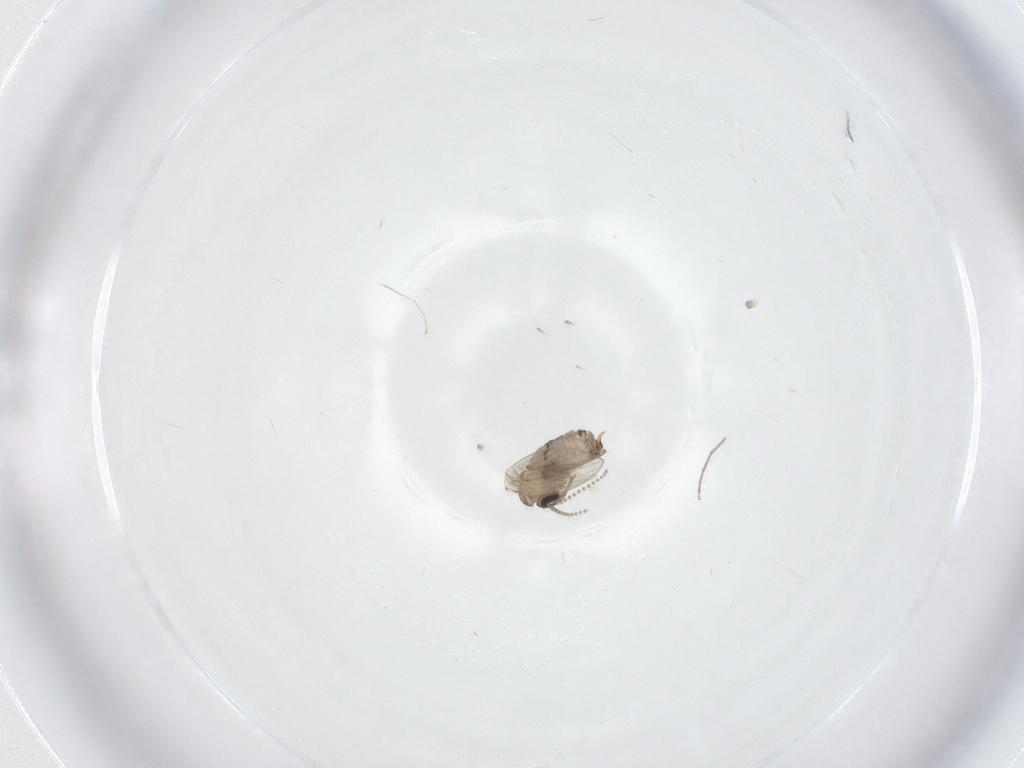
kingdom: Animalia
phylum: Arthropoda
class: Insecta
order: Diptera
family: Psychodidae
